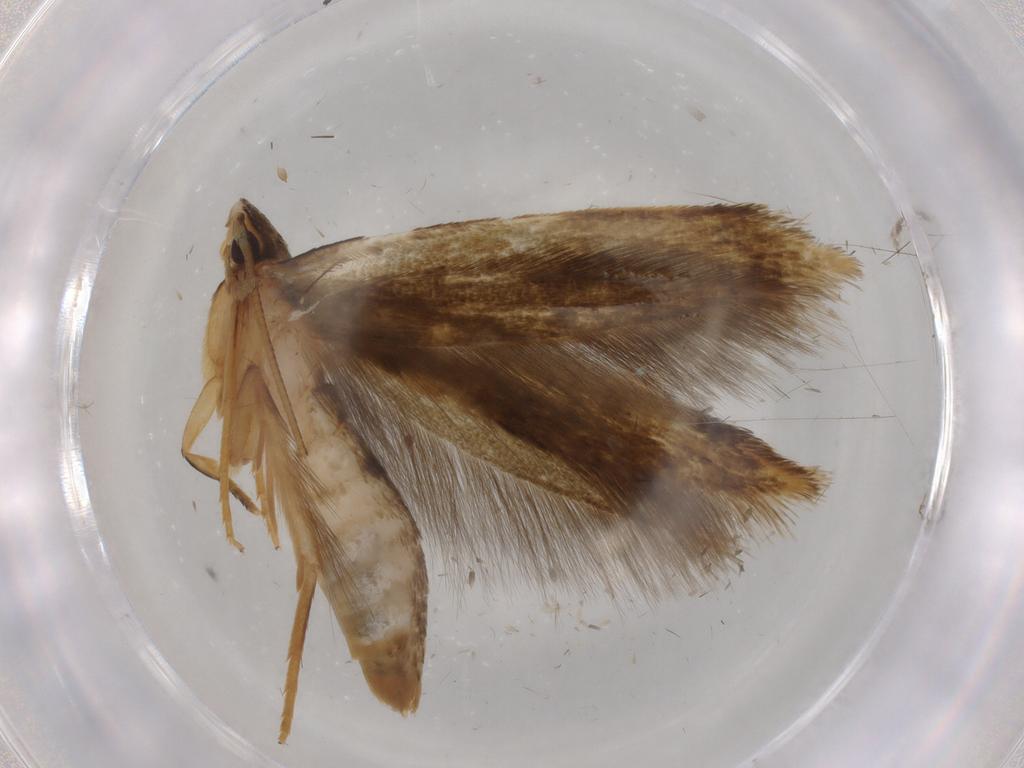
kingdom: Animalia
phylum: Arthropoda
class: Insecta
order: Lepidoptera
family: Tineidae
